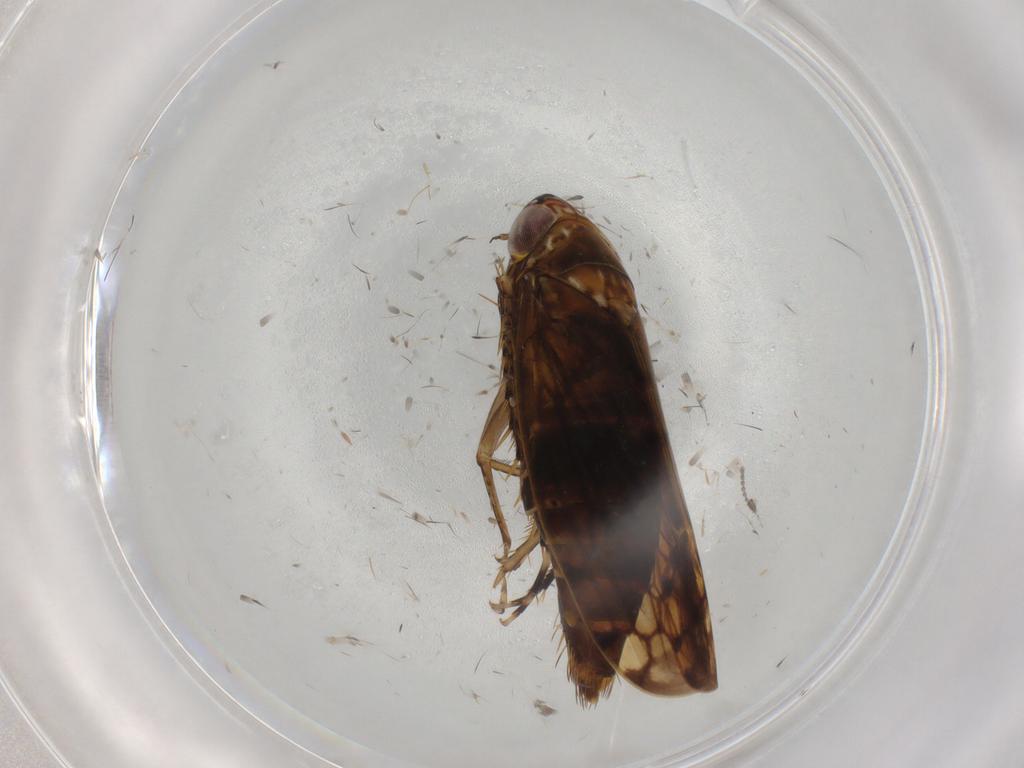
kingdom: Animalia
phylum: Arthropoda
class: Insecta
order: Hemiptera
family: Cicadellidae
